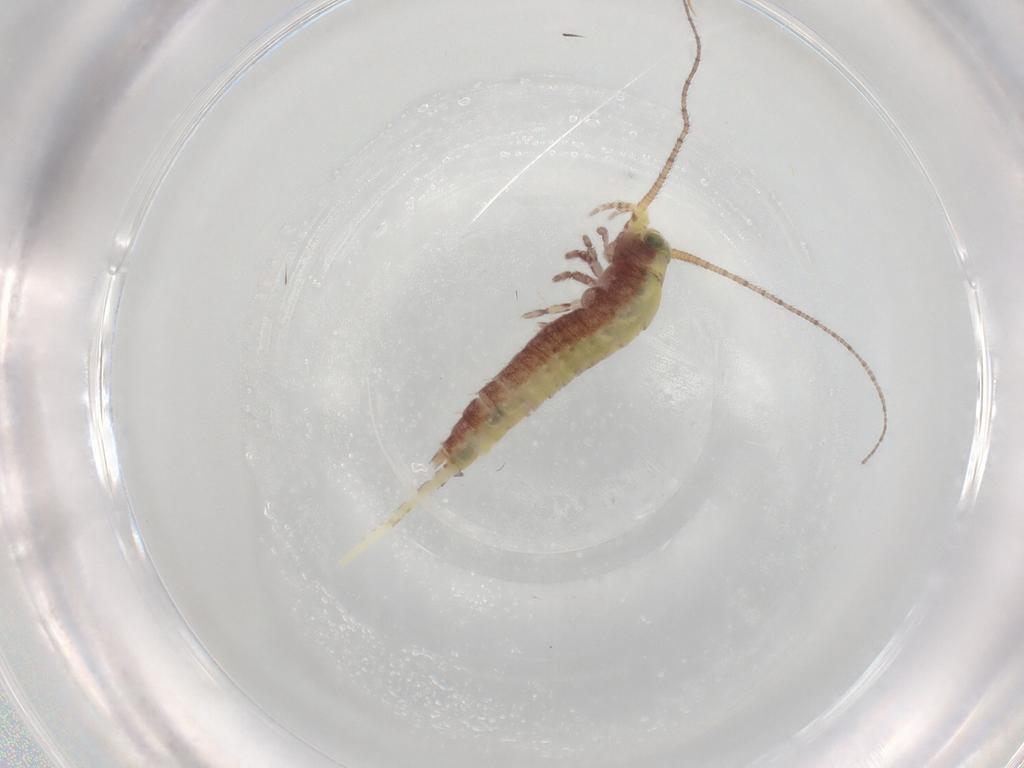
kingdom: Animalia
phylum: Arthropoda
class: Insecta
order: Archaeognatha
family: Machilidae
